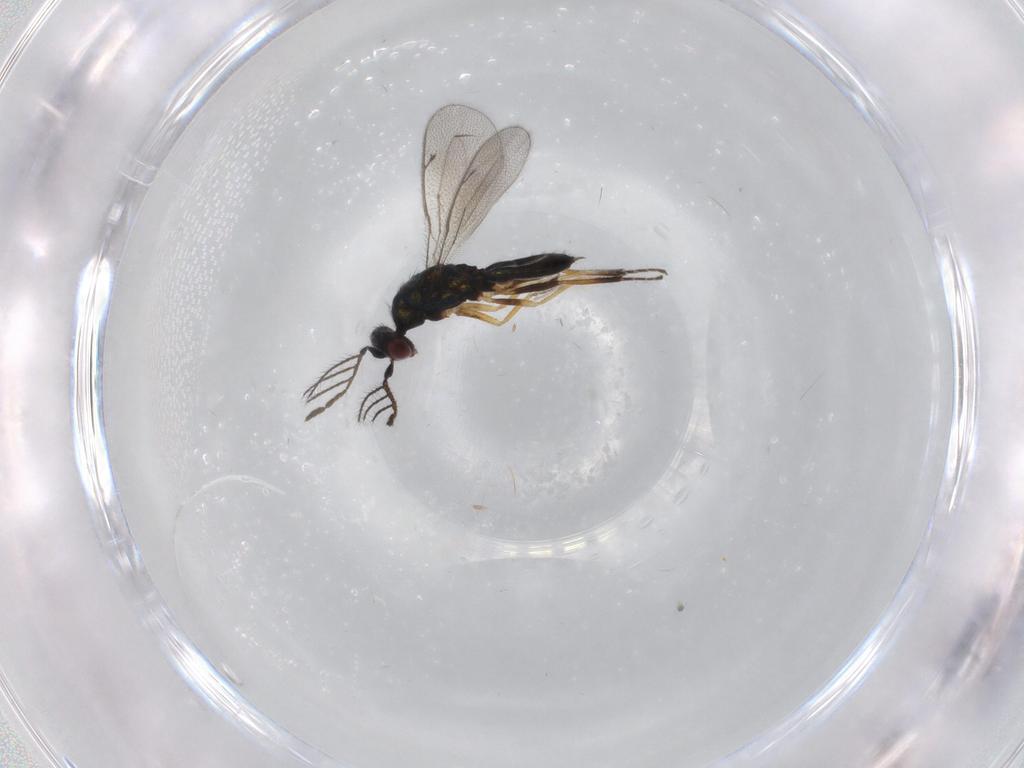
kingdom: Animalia
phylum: Arthropoda
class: Insecta
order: Hymenoptera
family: Eulophidae
